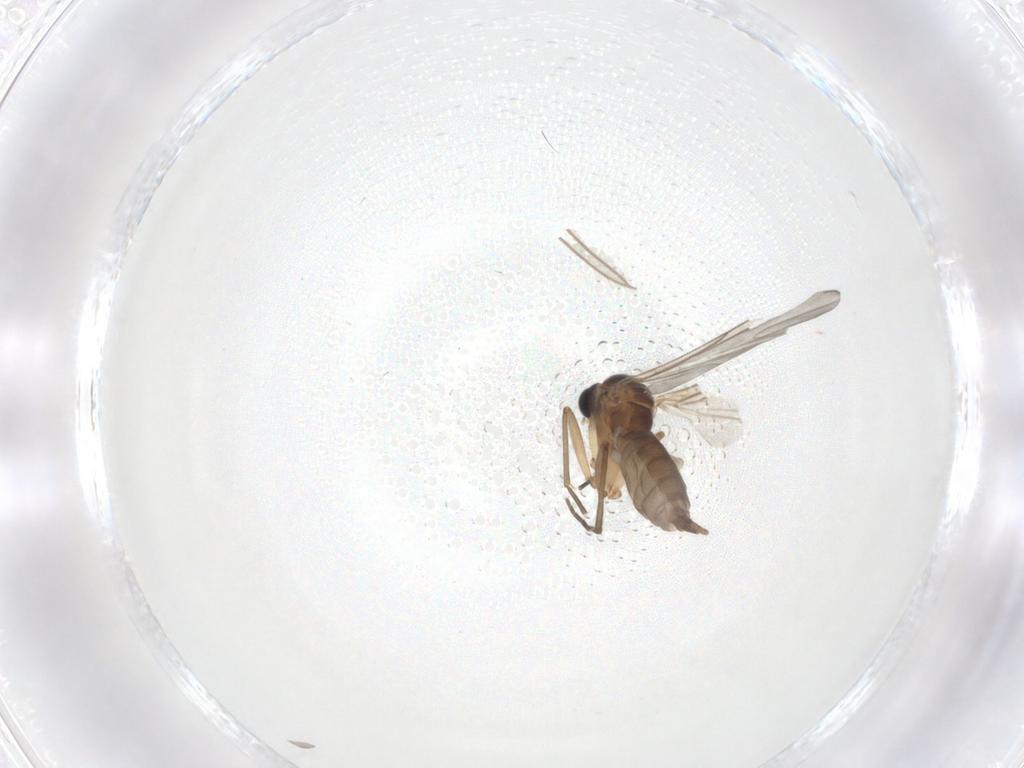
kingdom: Animalia
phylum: Arthropoda
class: Insecta
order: Diptera
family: Sciaridae
